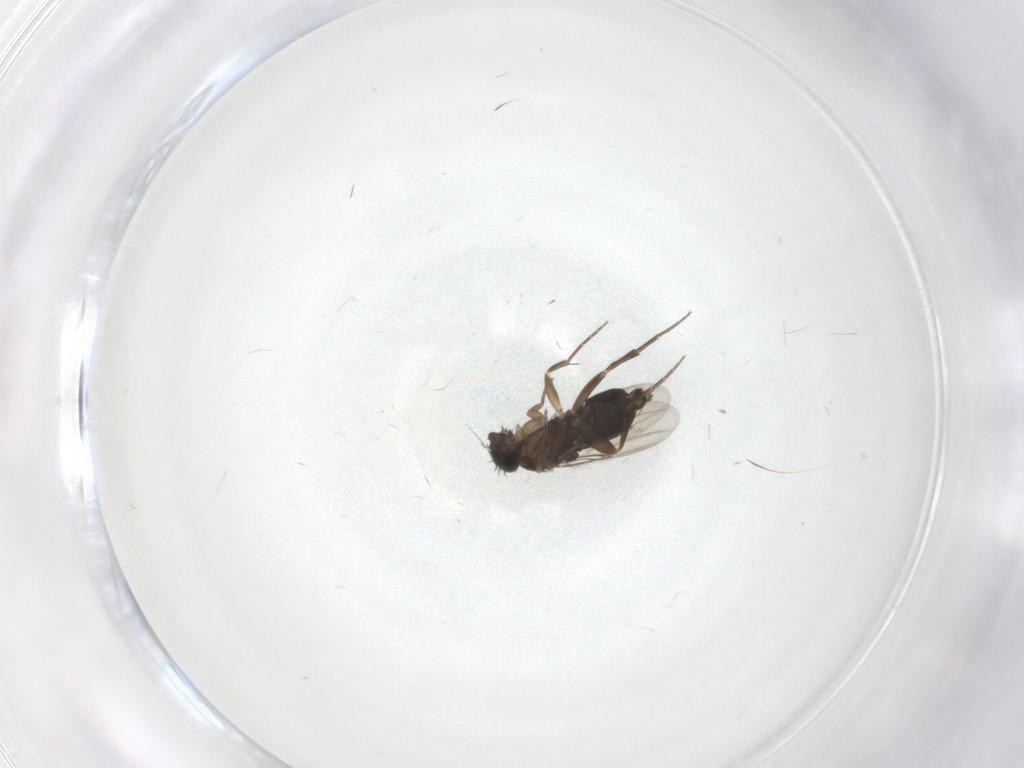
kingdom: Animalia
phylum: Arthropoda
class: Insecta
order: Diptera
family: Phoridae
